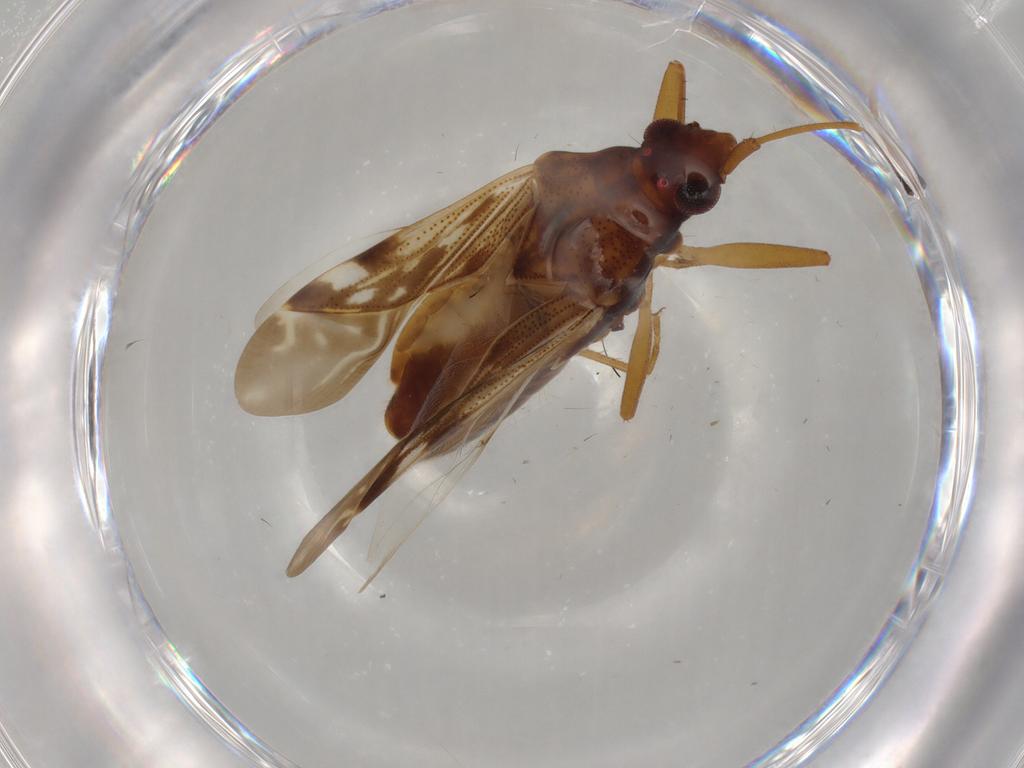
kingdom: Animalia
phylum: Arthropoda
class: Insecta
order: Hemiptera
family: Rhyparochromidae
